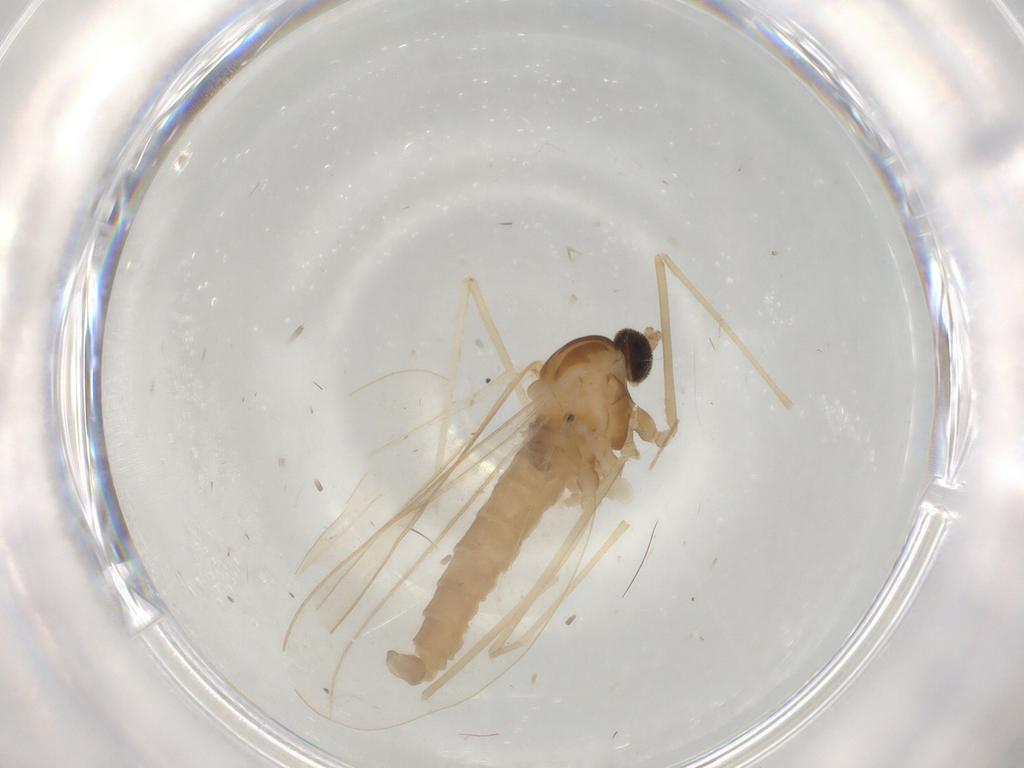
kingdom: Animalia
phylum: Arthropoda
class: Insecta
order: Diptera
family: Cecidomyiidae
